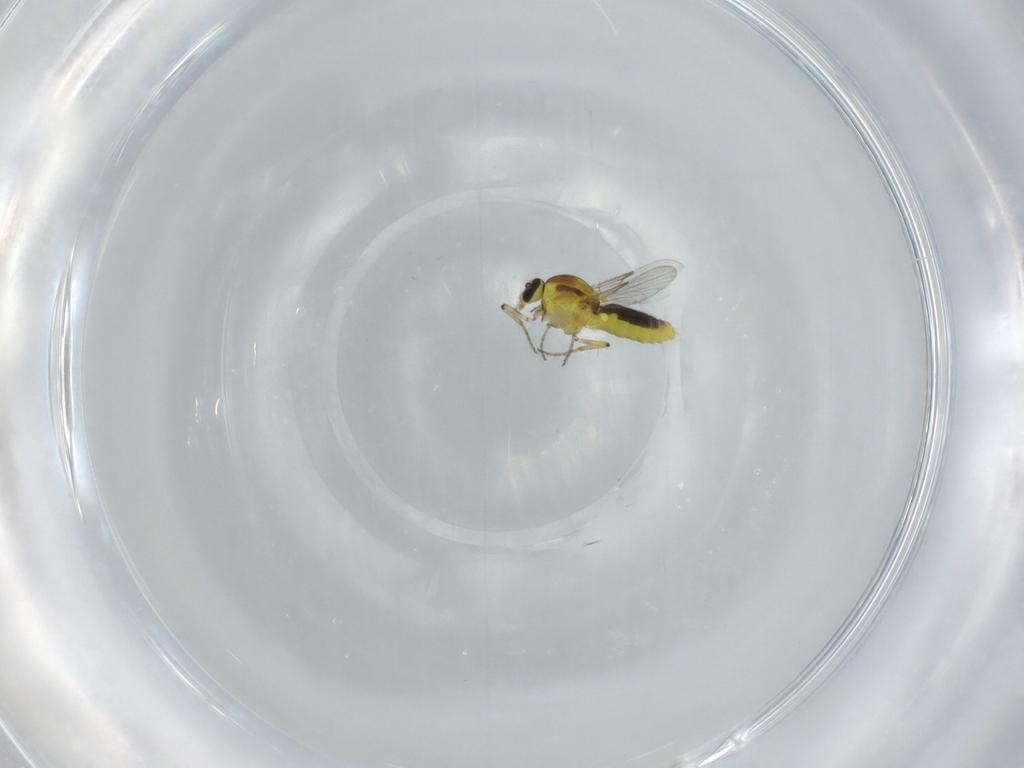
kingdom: Animalia
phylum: Arthropoda
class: Insecta
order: Diptera
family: Ceratopogonidae
